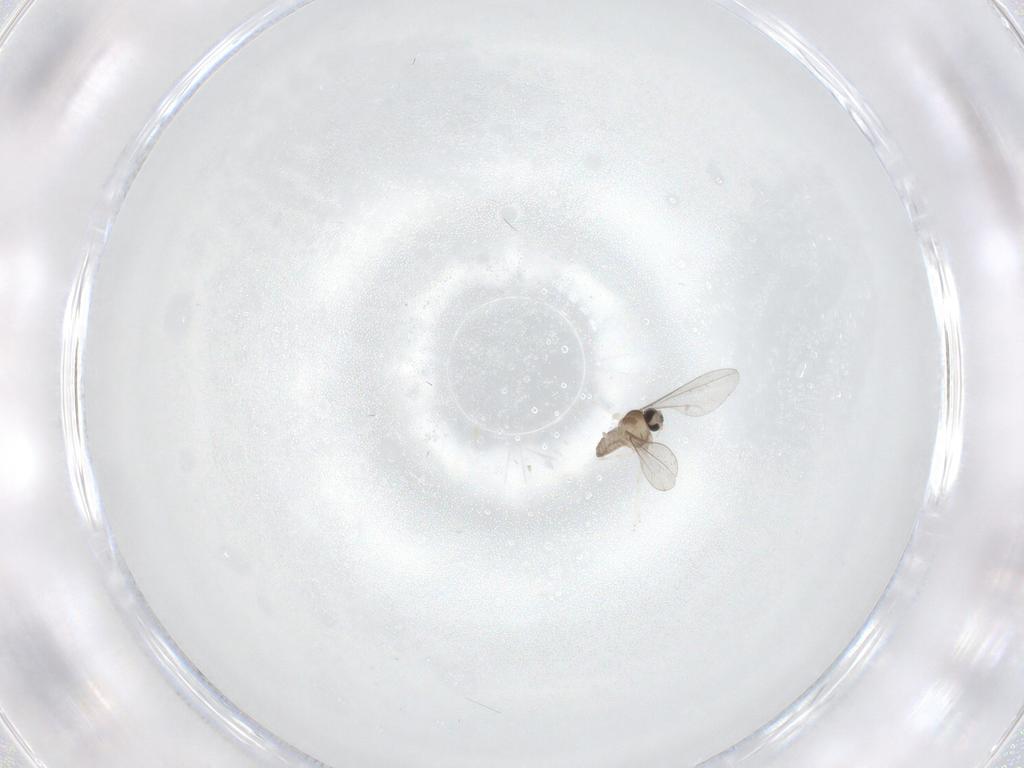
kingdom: Animalia
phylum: Arthropoda
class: Insecta
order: Diptera
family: Cecidomyiidae
